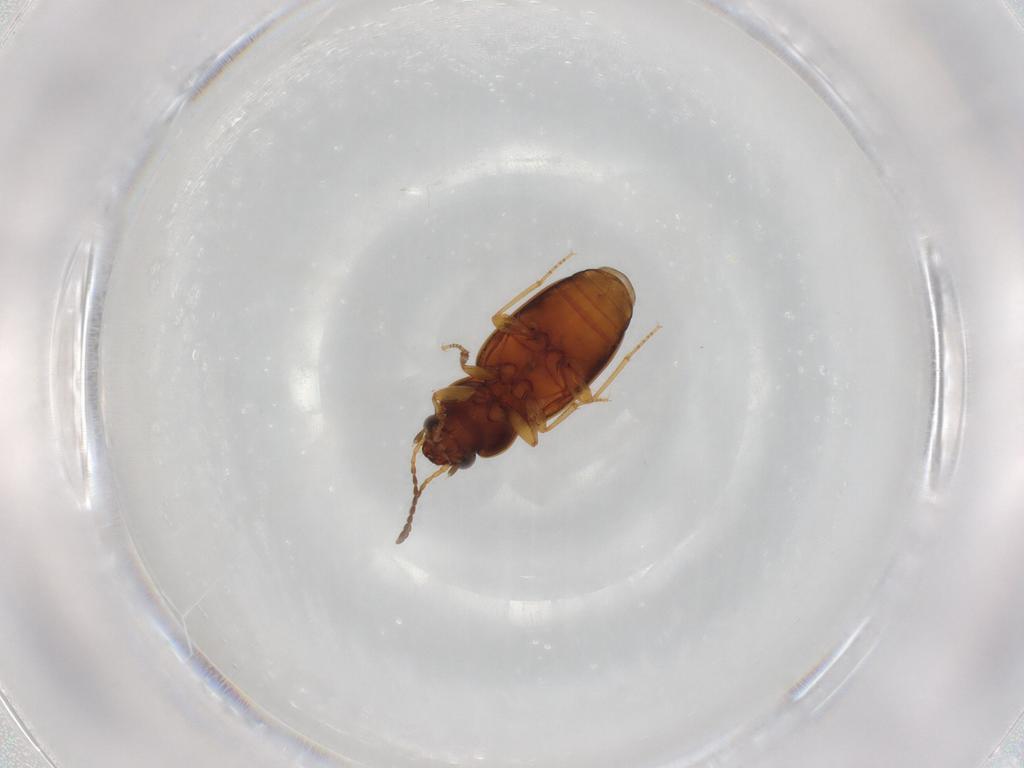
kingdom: Animalia
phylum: Arthropoda
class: Insecta
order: Coleoptera
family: Carabidae
